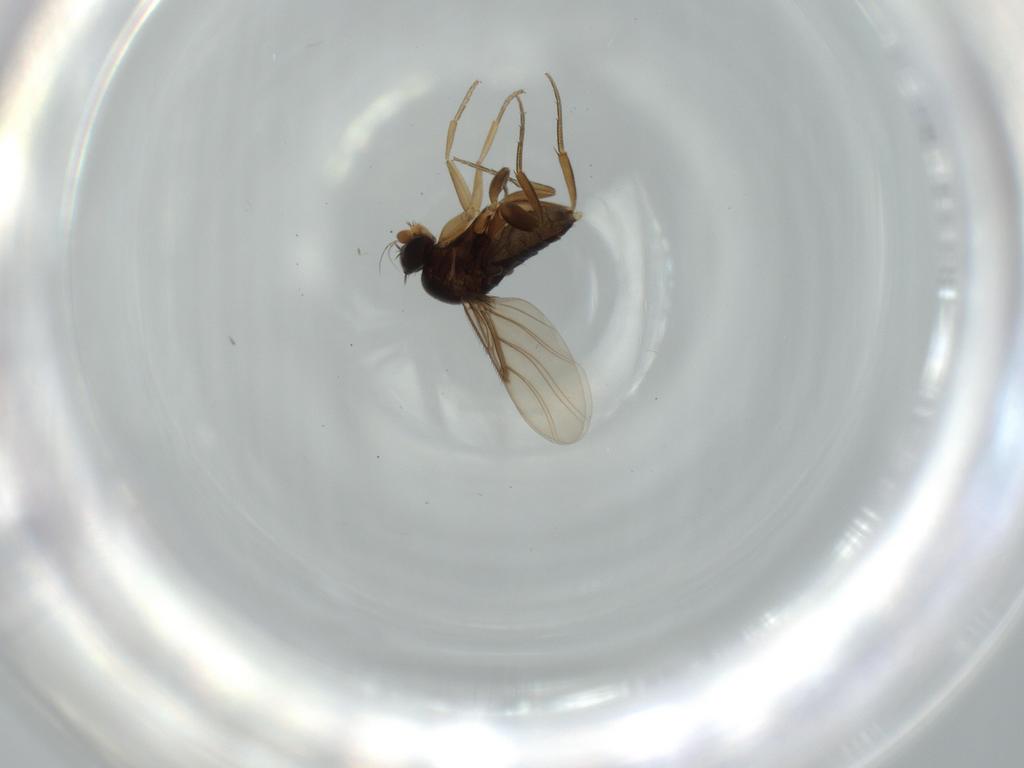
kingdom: Animalia
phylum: Arthropoda
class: Insecta
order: Diptera
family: Phoridae
